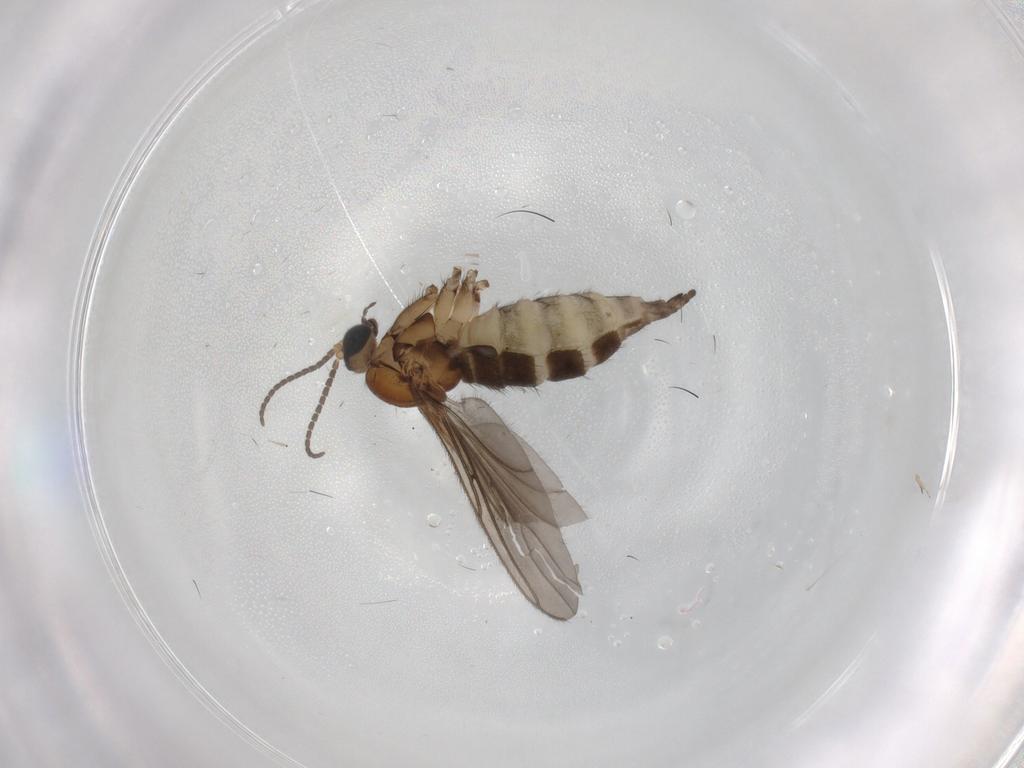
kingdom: Animalia
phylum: Arthropoda
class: Insecta
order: Diptera
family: Sciaridae
